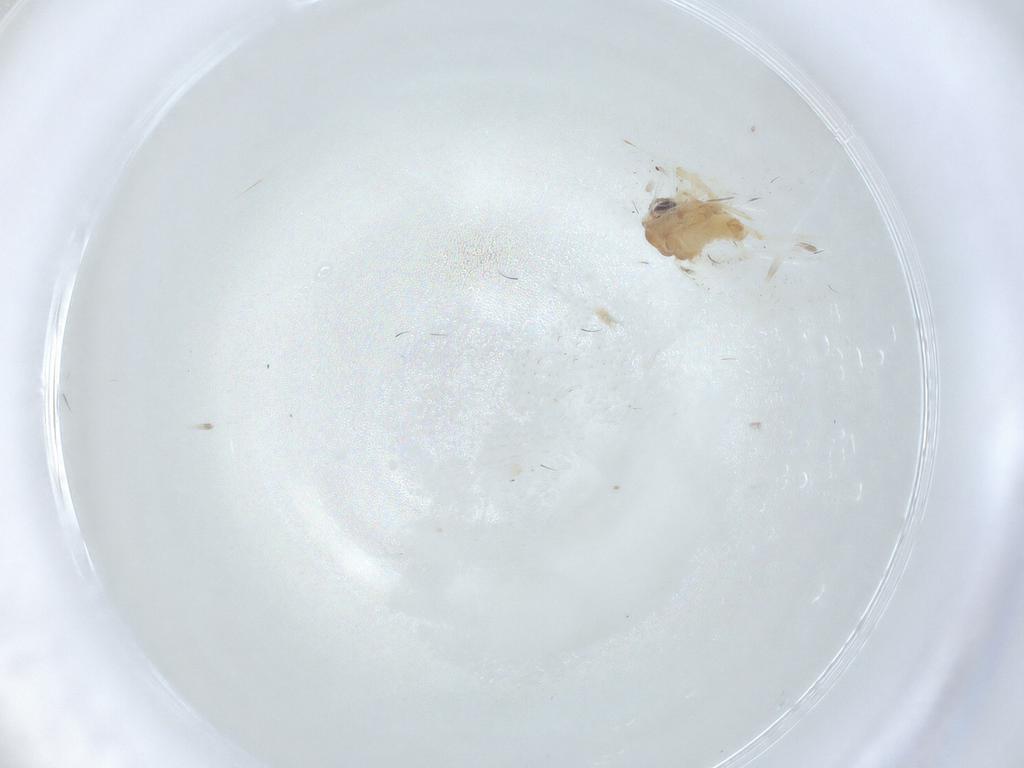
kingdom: Animalia
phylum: Arthropoda
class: Insecta
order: Neuroptera
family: Coniopterygidae
